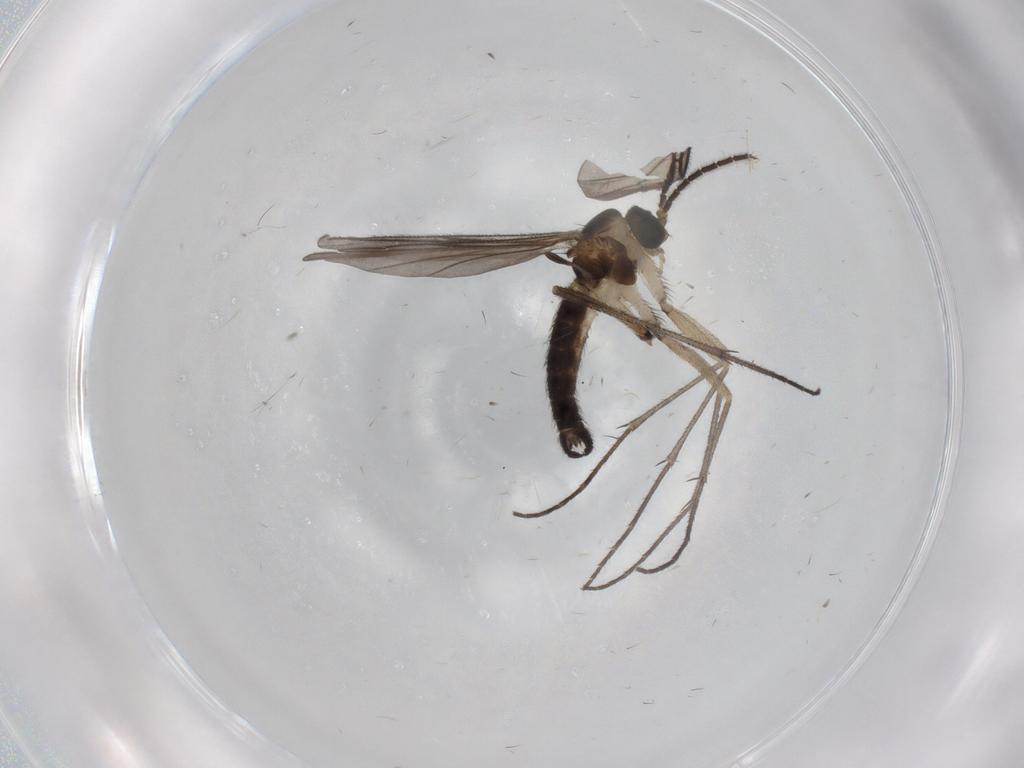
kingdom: Animalia
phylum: Arthropoda
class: Insecta
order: Diptera
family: Sciaridae
